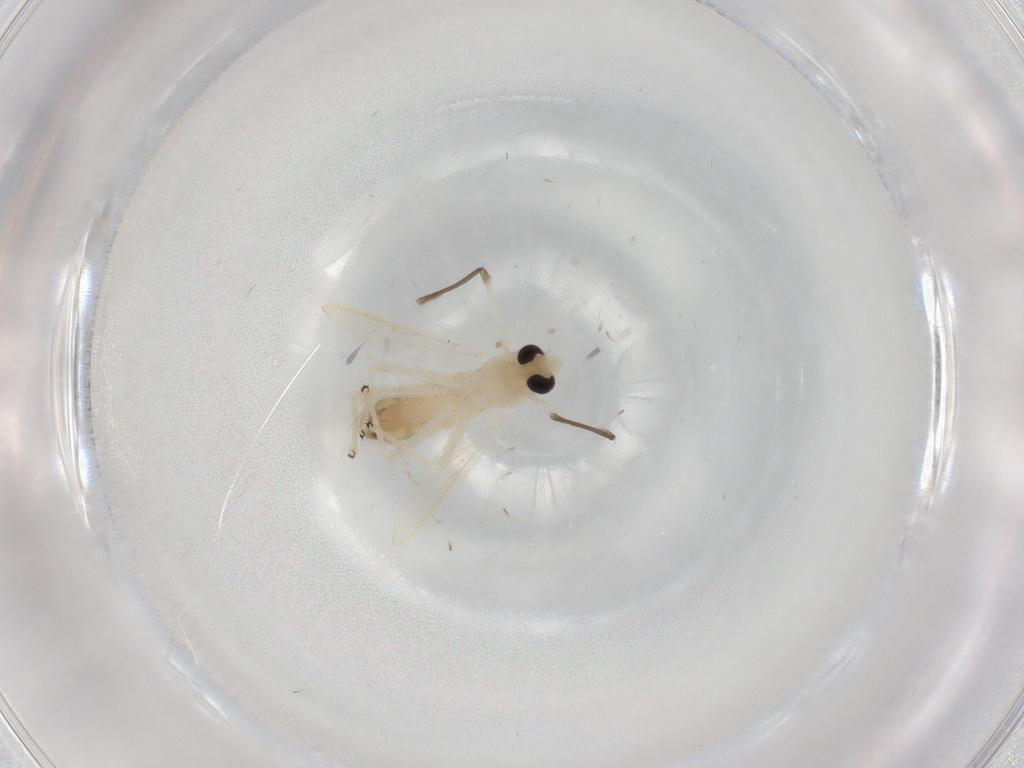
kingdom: Animalia
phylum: Arthropoda
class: Insecta
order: Diptera
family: Chironomidae
